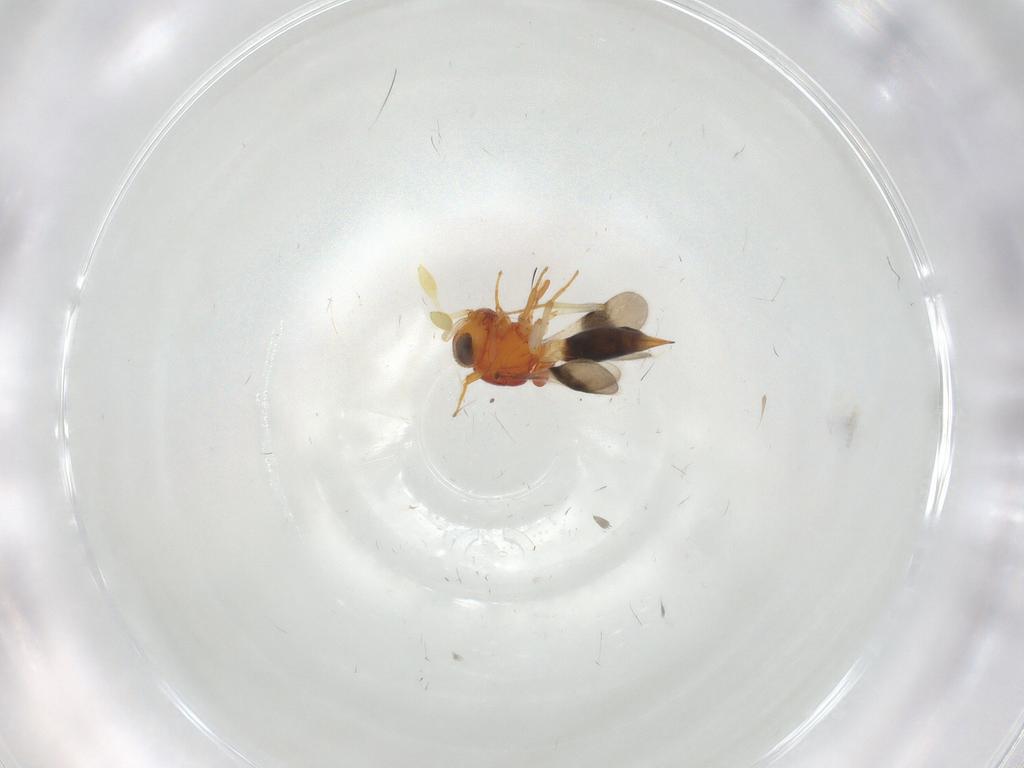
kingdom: Animalia
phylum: Arthropoda
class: Insecta
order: Hymenoptera
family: Scelionidae
